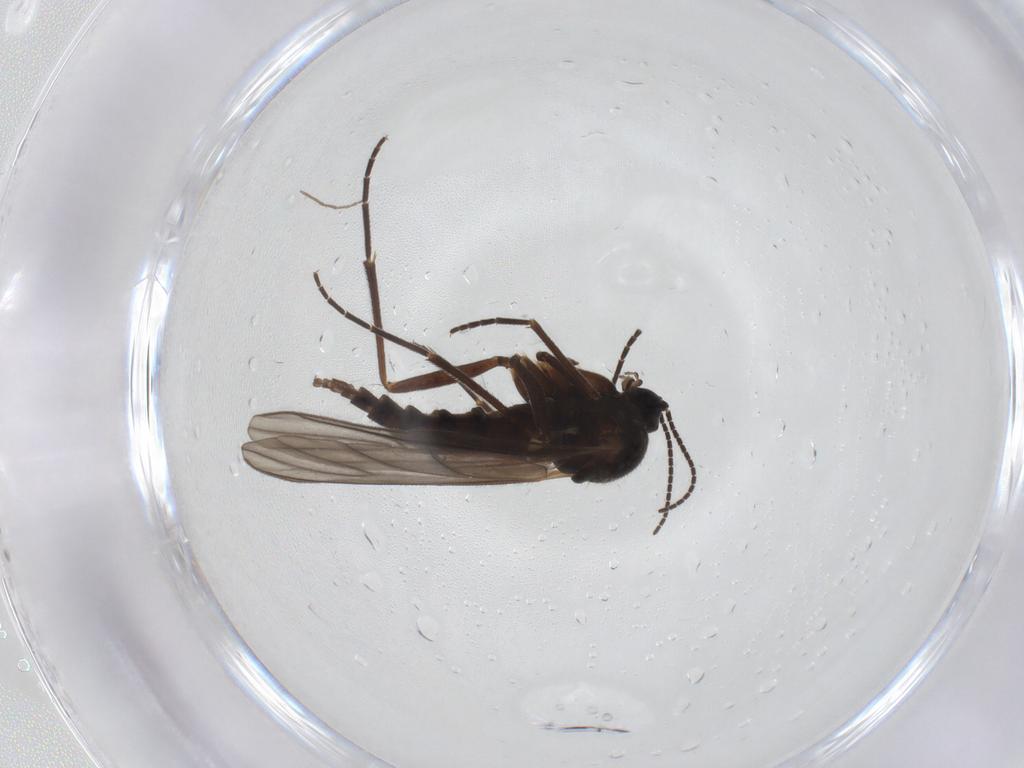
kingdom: Animalia
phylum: Arthropoda
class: Insecta
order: Diptera
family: Sciaridae
